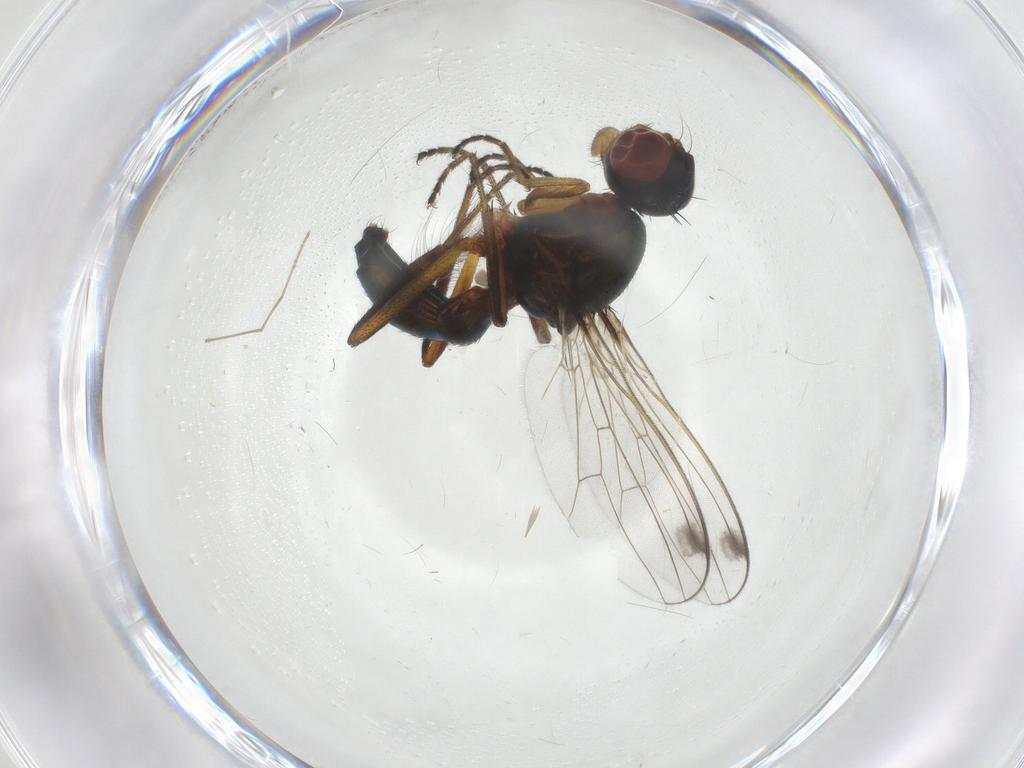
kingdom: Animalia
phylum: Arthropoda
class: Insecta
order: Diptera
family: Sepsidae
